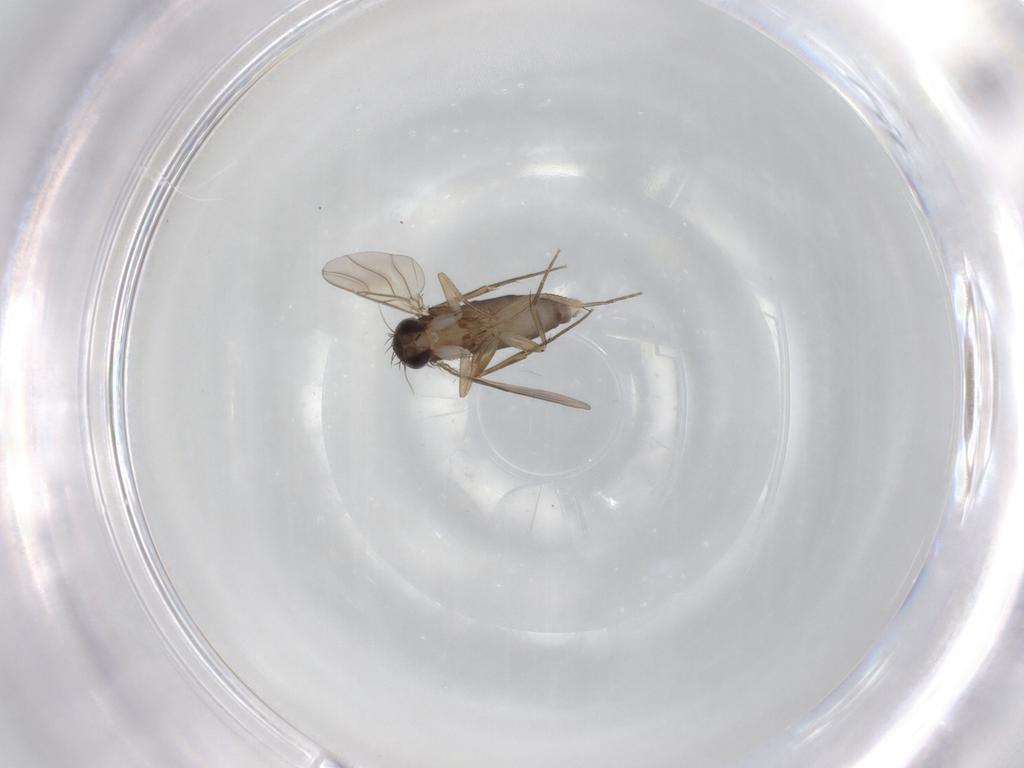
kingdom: Animalia
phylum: Arthropoda
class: Insecta
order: Diptera
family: Phoridae
